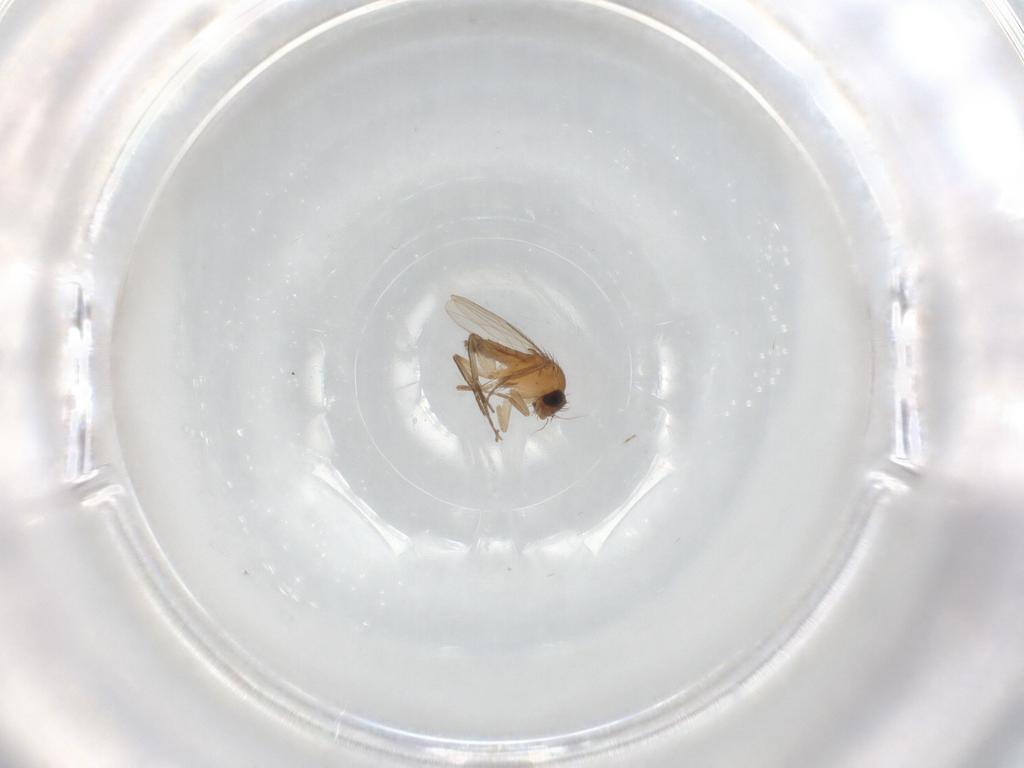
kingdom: Animalia
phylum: Arthropoda
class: Insecta
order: Diptera
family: Phoridae
